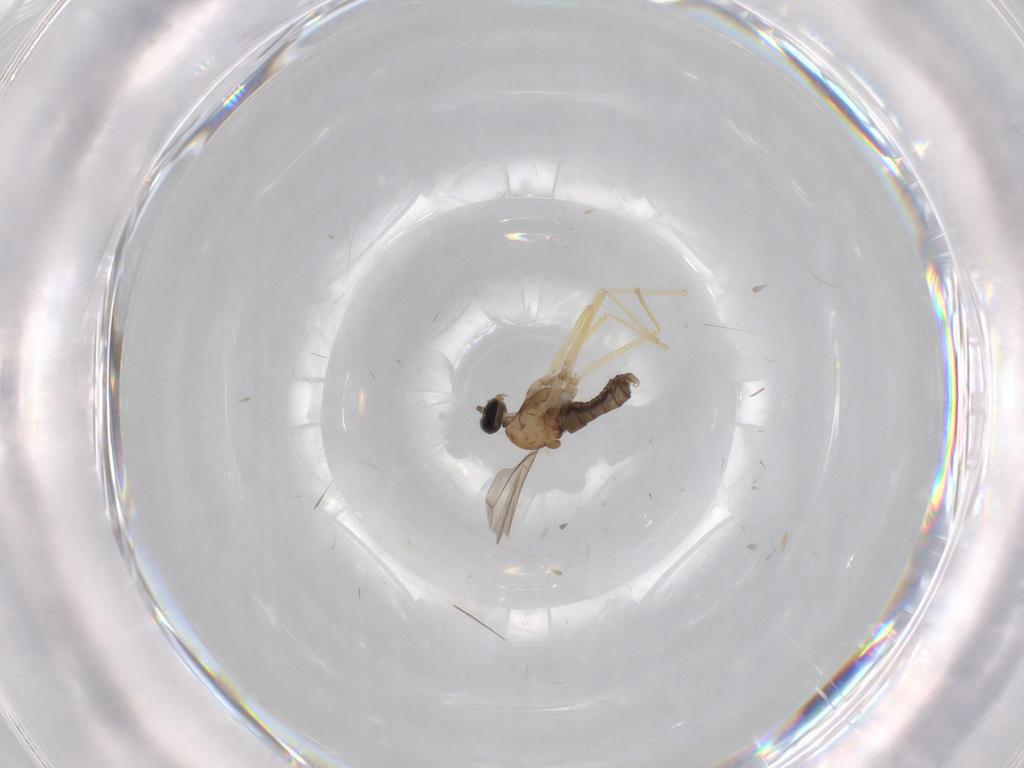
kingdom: Animalia
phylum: Arthropoda
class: Insecta
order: Diptera
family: Cecidomyiidae
